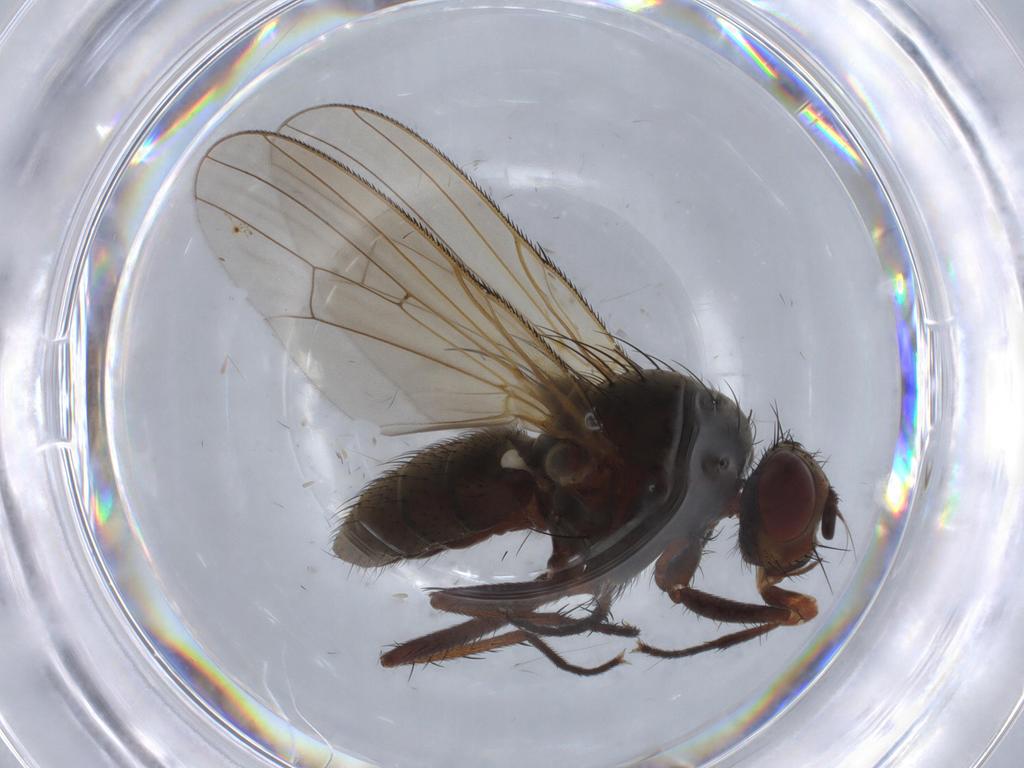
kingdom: Animalia
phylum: Arthropoda
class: Insecta
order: Diptera
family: Anthomyiidae
